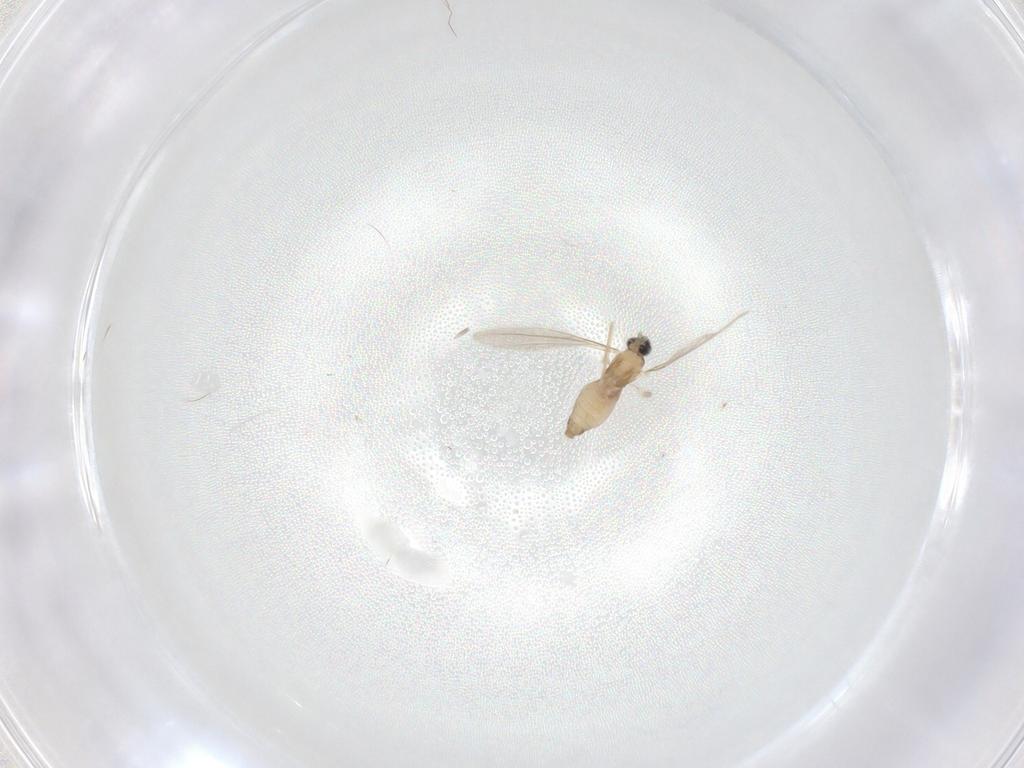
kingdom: Animalia
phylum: Arthropoda
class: Insecta
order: Diptera
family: Cecidomyiidae
